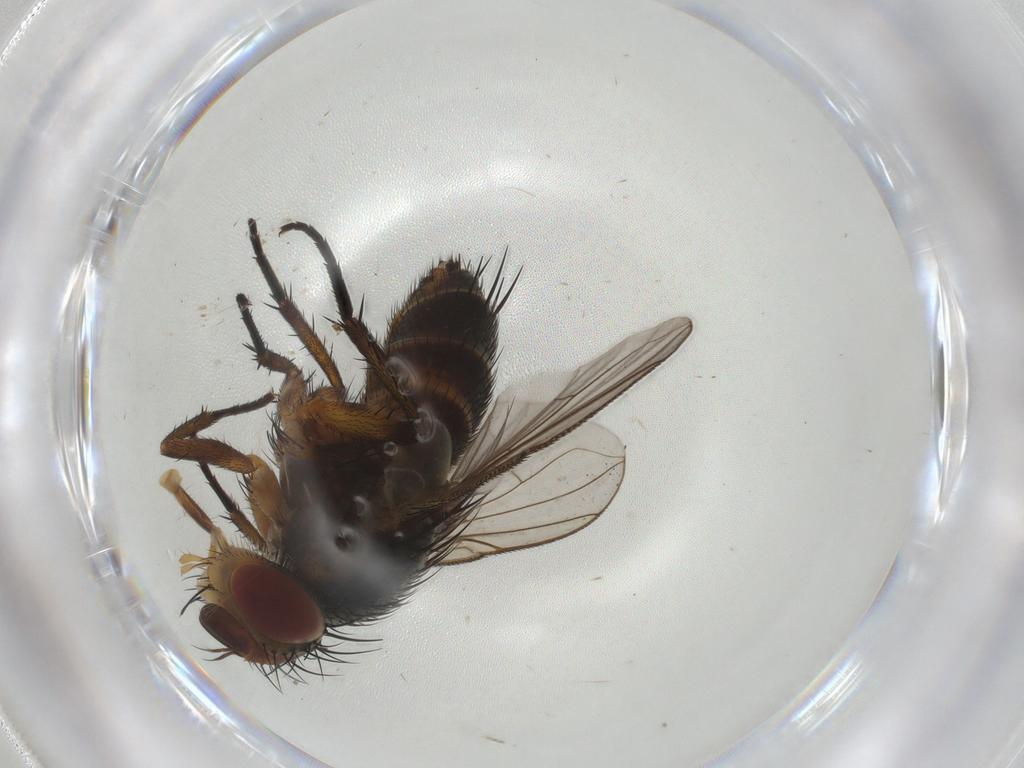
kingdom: Animalia
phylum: Arthropoda
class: Insecta
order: Diptera
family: Tachinidae
